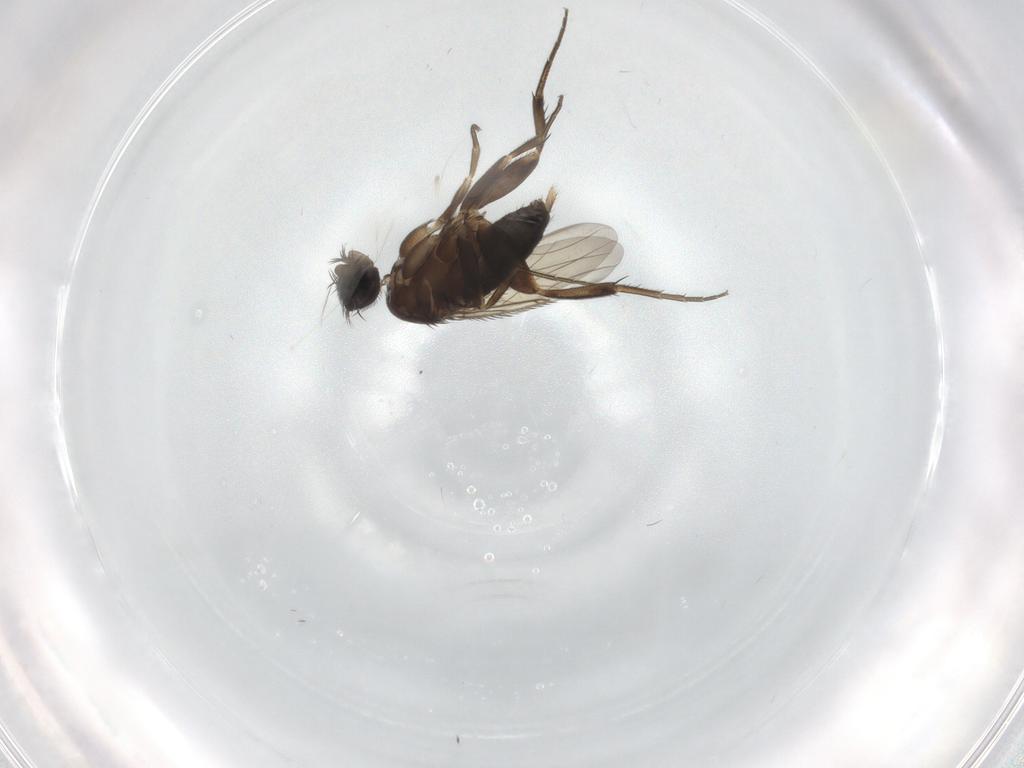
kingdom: Animalia
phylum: Arthropoda
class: Insecta
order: Diptera
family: Phoridae
